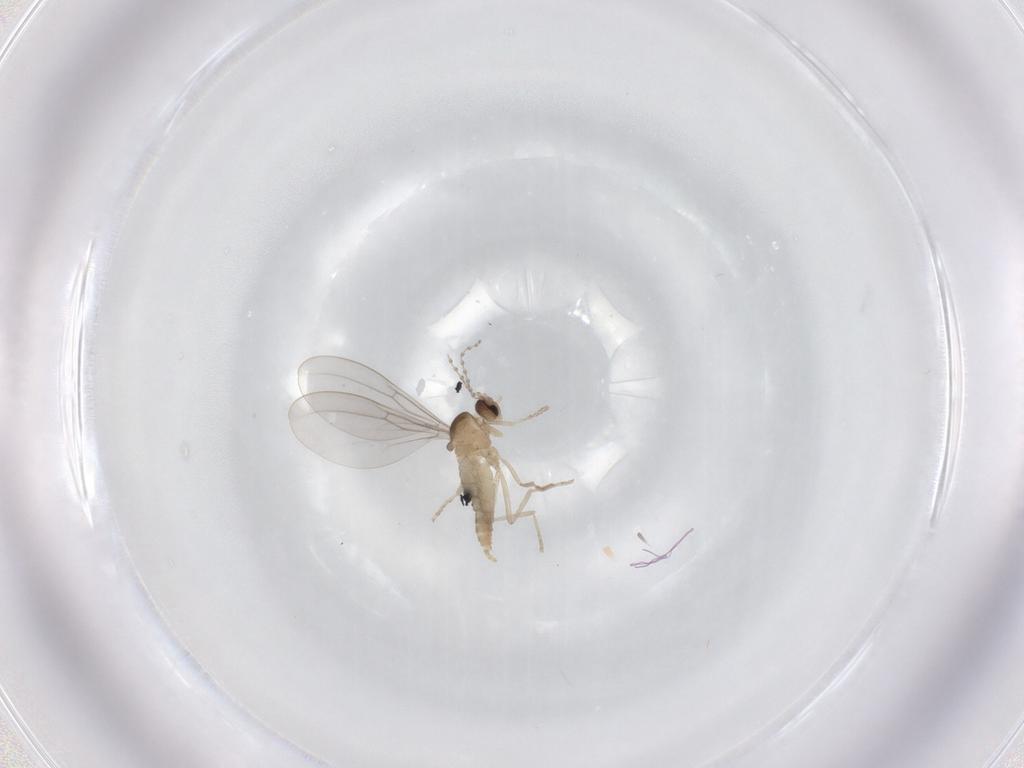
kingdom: Animalia
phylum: Arthropoda
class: Insecta
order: Diptera
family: Cecidomyiidae
